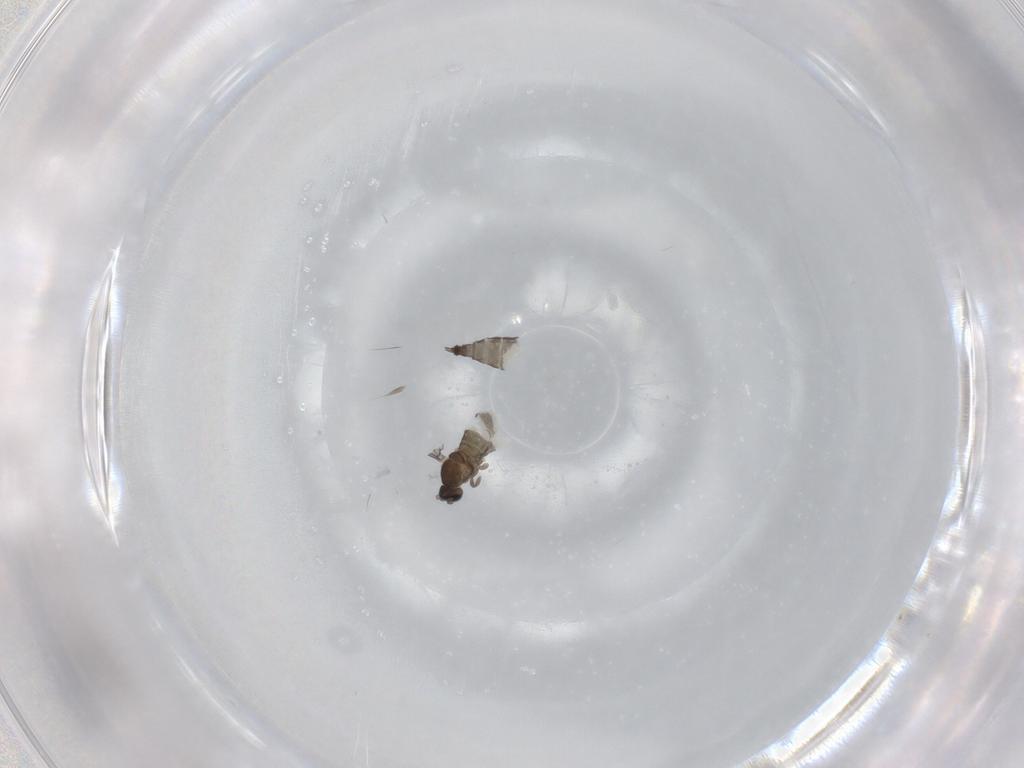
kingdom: Animalia
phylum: Arthropoda
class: Insecta
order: Diptera
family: Cecidomyiidae
